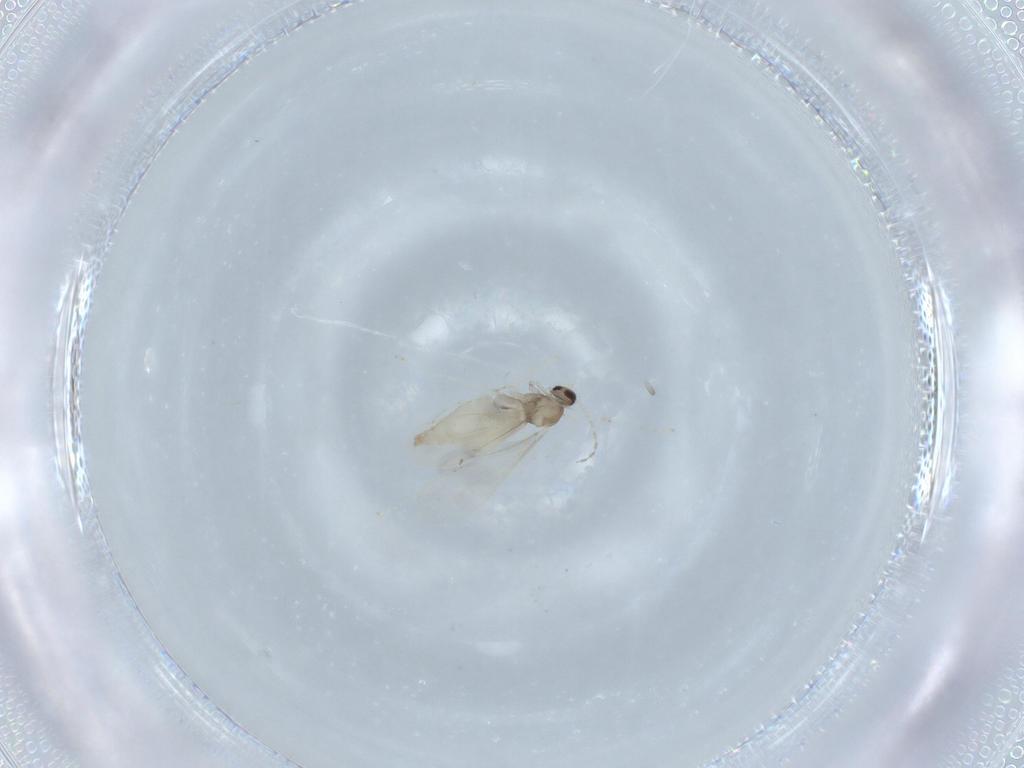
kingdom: Animalia
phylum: Arthropoda
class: Insecta
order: Diptera
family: Cecidomyiidae
